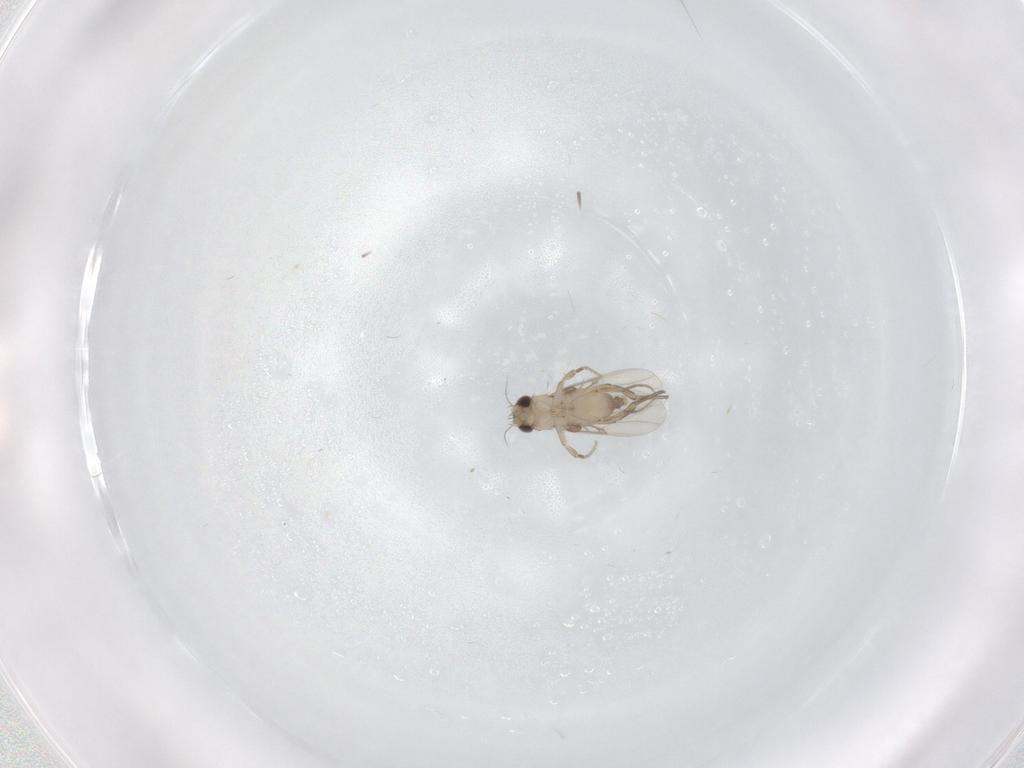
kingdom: Animalia
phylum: Arthropoda
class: Insecta
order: Diptera
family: Phoridae
